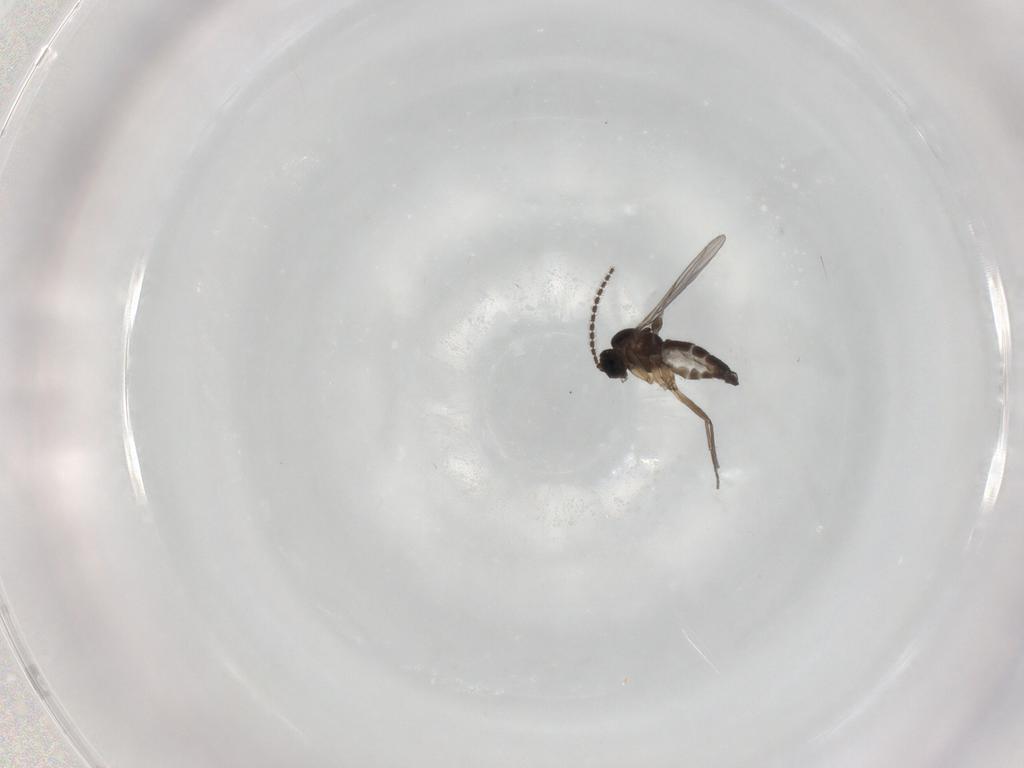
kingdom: Animalia
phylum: Arthropoda
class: Insecta
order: Diptera
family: Sciaridae
